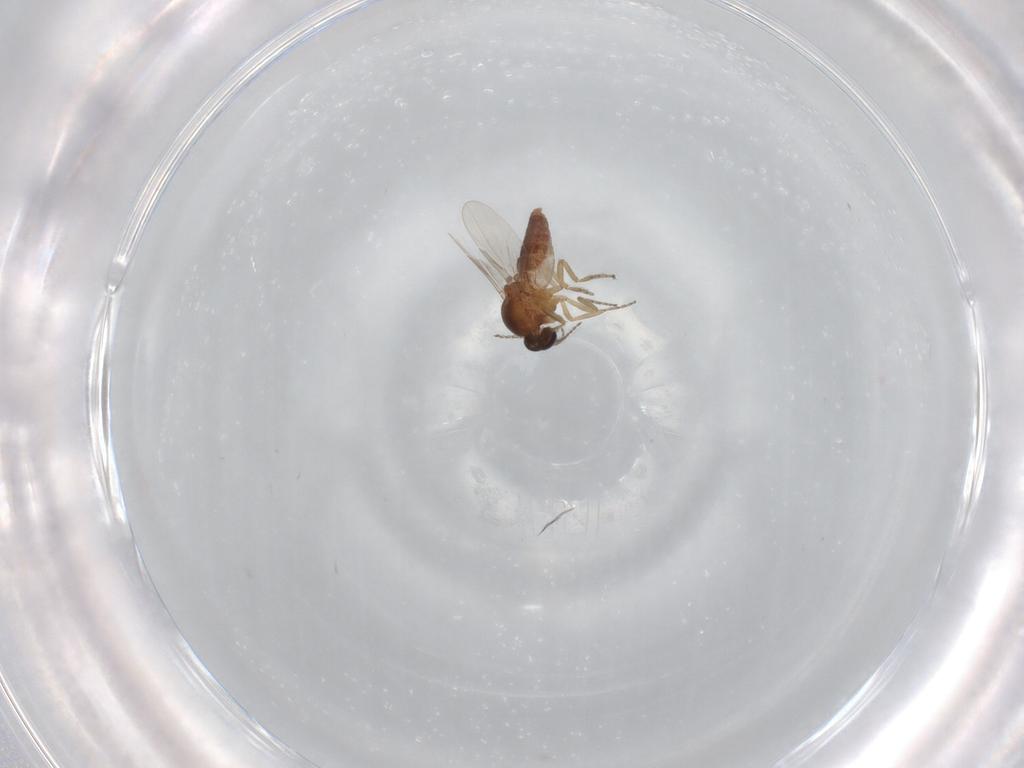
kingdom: Animalia
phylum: Arthropoda
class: Insecta
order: Diptera
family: Ceratopogonidae
